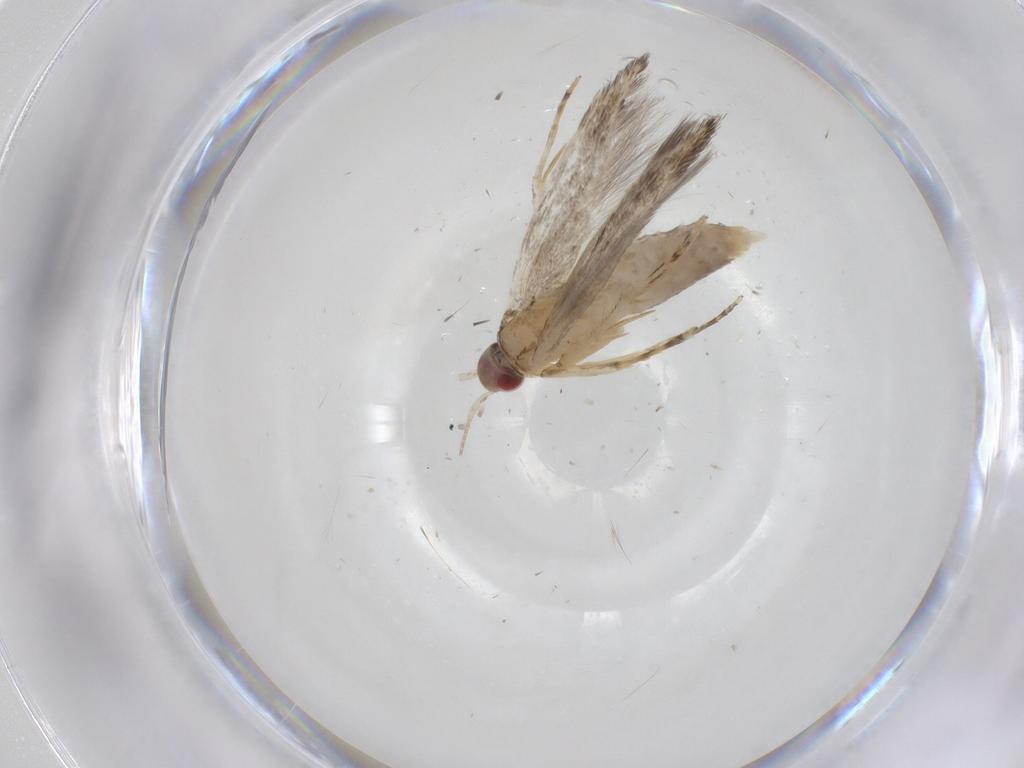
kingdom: Animalia
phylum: Arthropoda
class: Insecta
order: Lepidoptera
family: Cosmopterigidae
